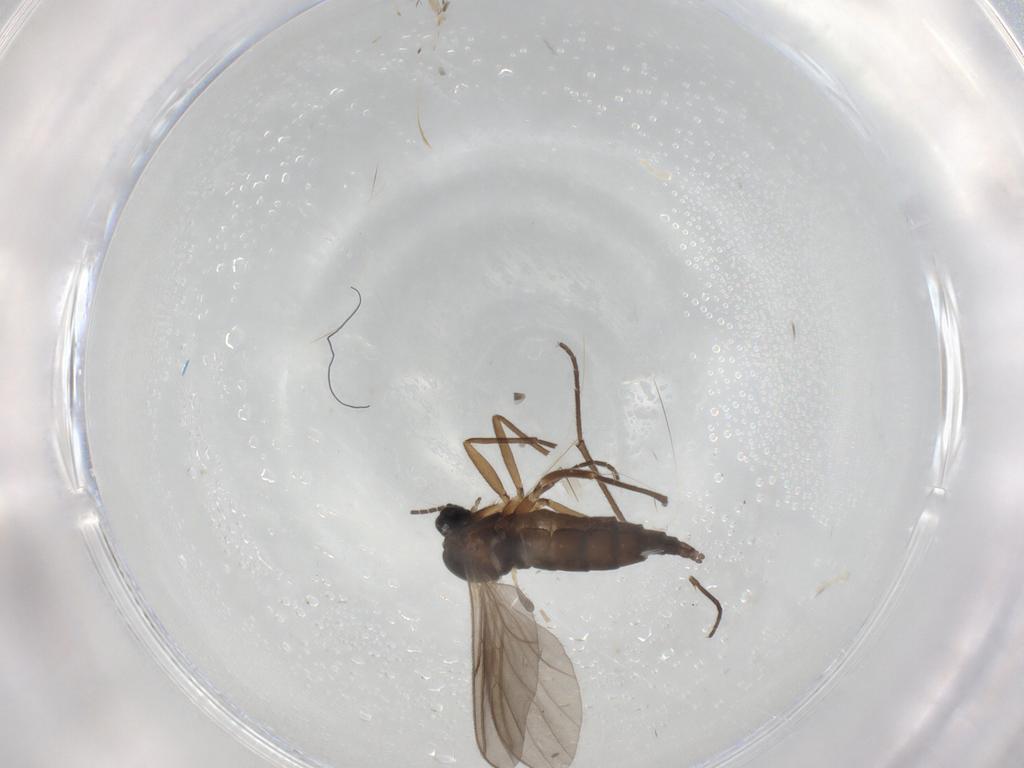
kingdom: Animalia
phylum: Arthropoda
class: Insecta
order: Diptera
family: Sciaridae
